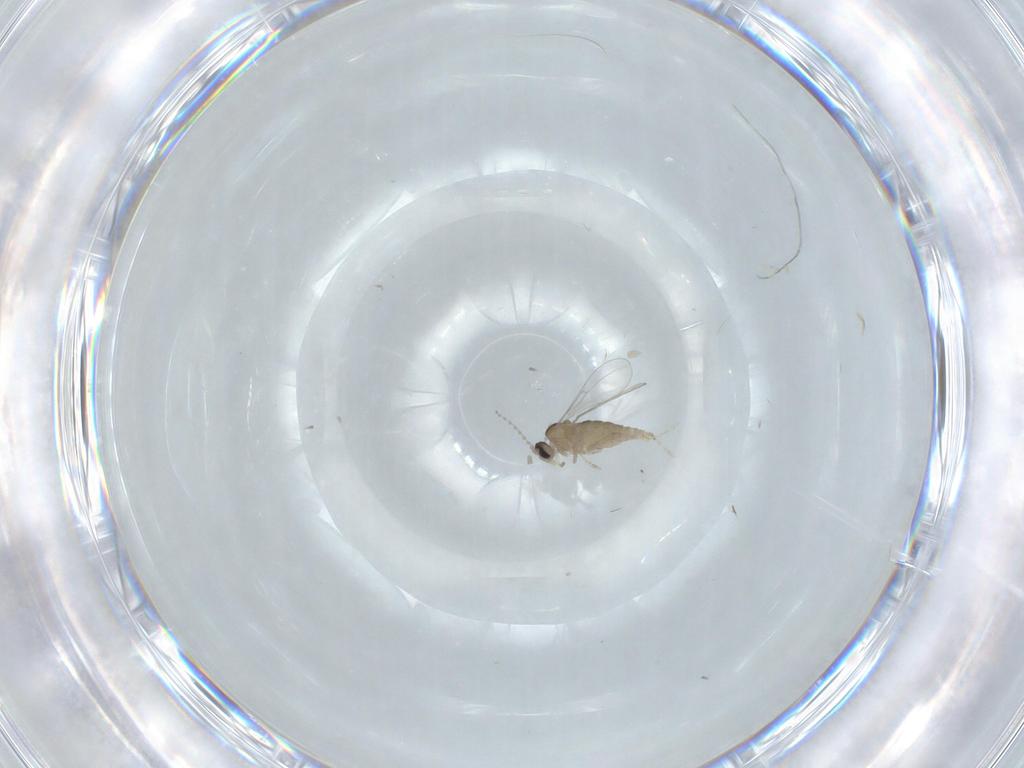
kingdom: Animalia
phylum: Arthropoda
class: Insecta
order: Diptera
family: Cecidomyiidae
